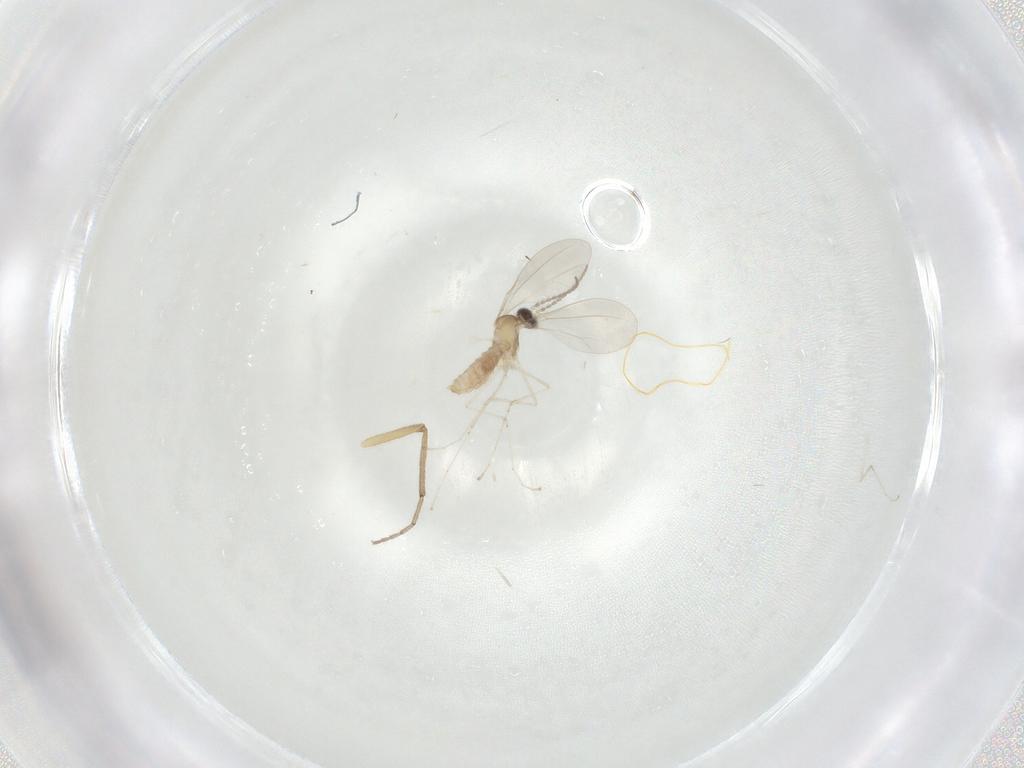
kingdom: Animalia
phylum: Arthropoda
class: Insecta
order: Diptera
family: Chironomidae
